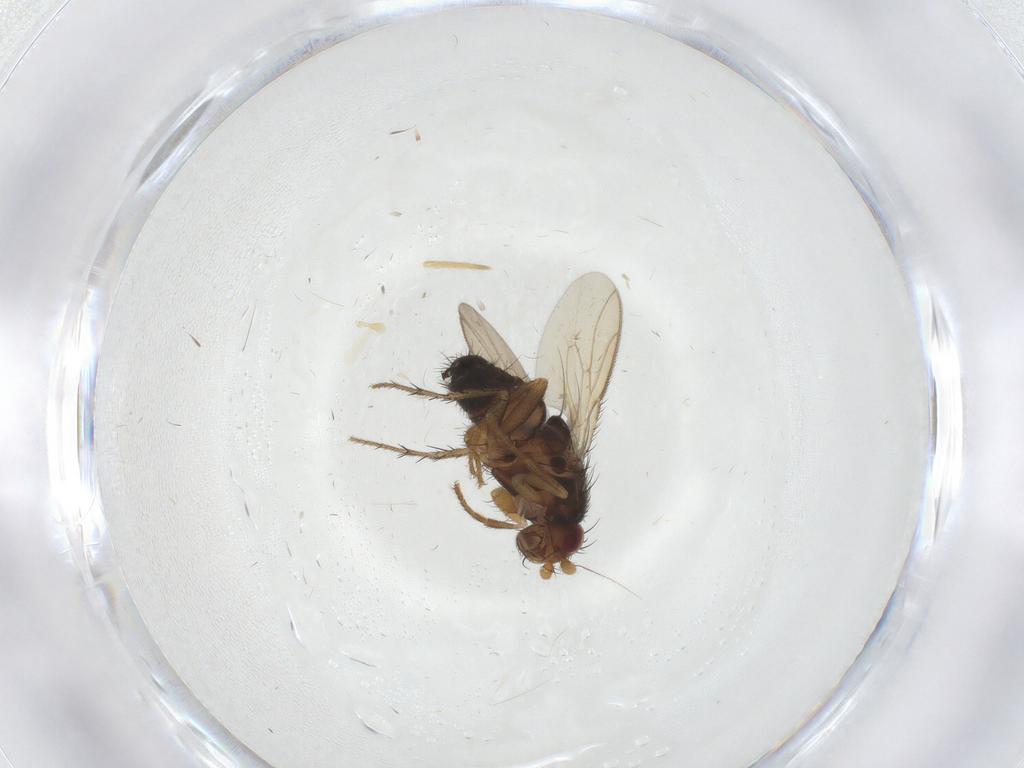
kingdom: Animalia
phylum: Arthropoda
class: Insecta
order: Diptera
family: Sphaeroceridae
